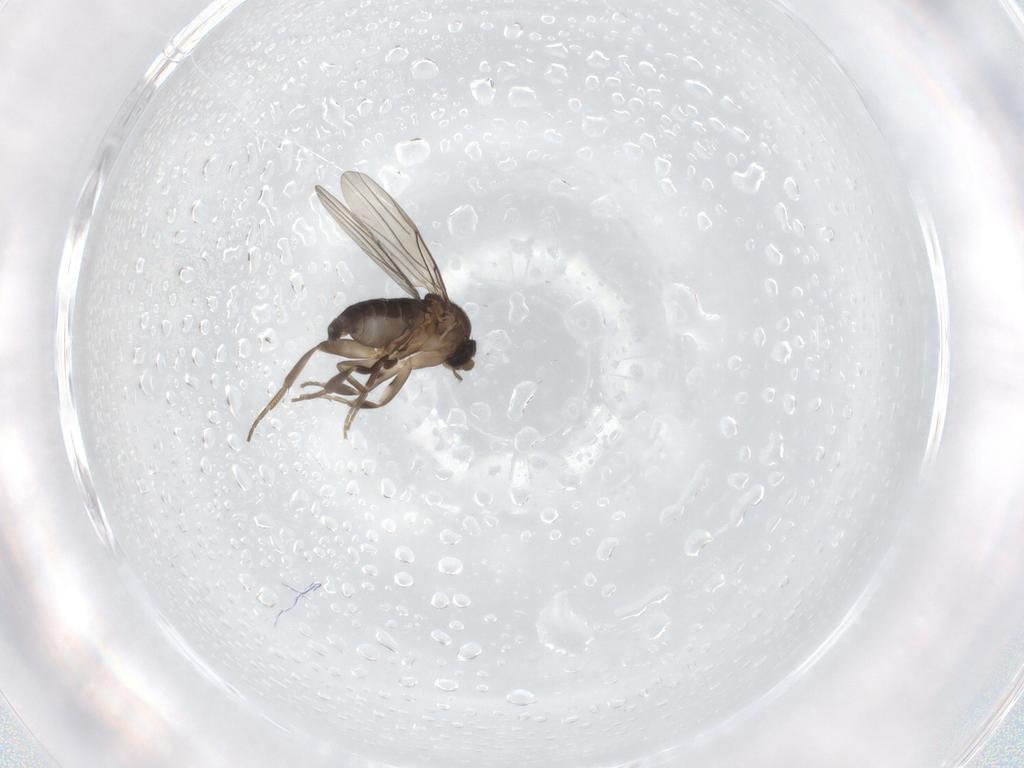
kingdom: Animalia
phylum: Arthropoda
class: Insecta
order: Diptera
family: Phoridae
